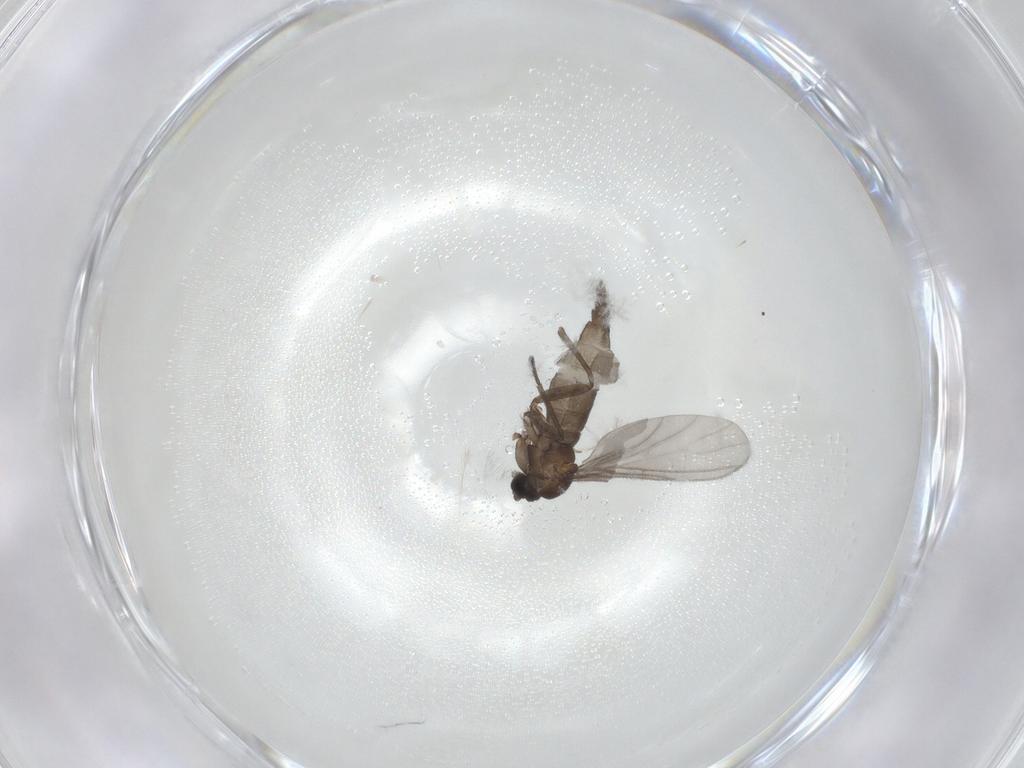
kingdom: Animalia
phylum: Arthropoda
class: Insecta
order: Diptera
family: Sciaridae
